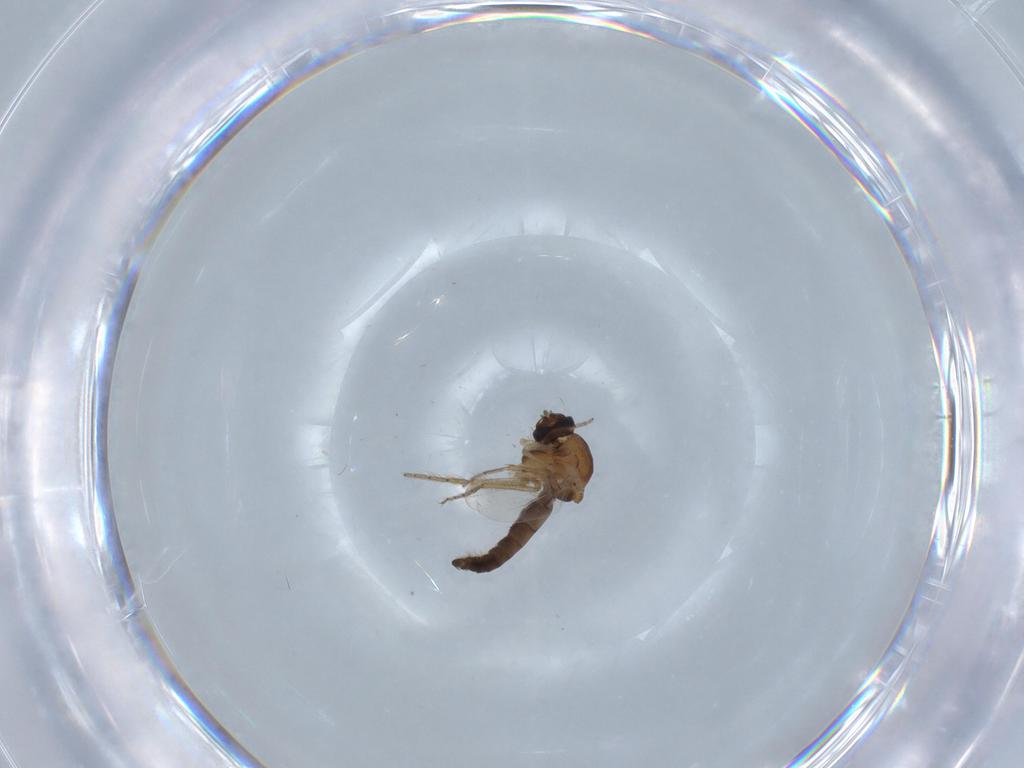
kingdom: Animalia
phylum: Arthropoda
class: Insecta
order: Diptera
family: Ceratopogonidae
